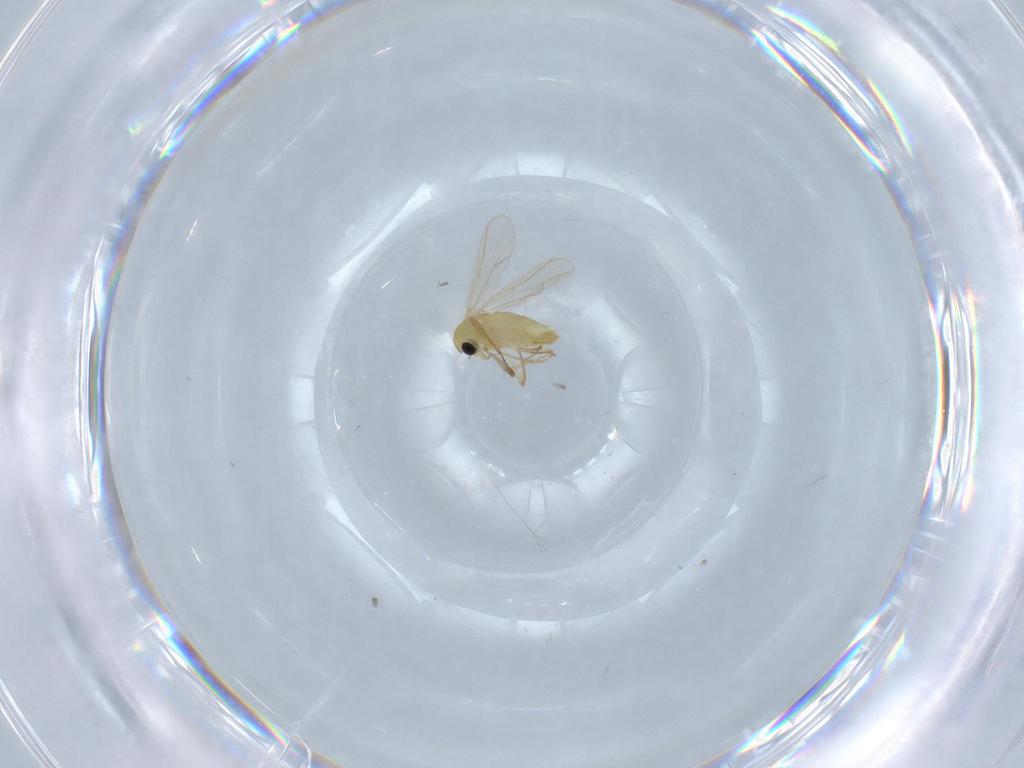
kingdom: Animalia
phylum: Arthropoda
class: Insecta
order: Diptera
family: Chironomidae
